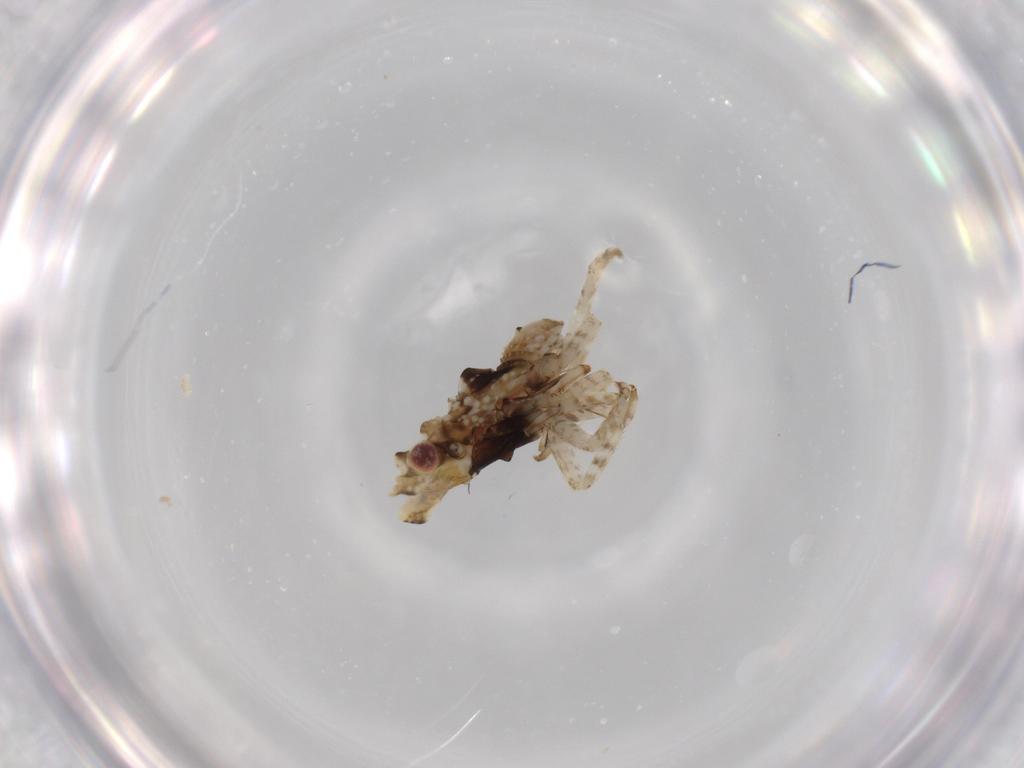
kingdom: Animalia
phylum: Arthropoda
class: Insecta
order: Hemiptera
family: Fulgoridae
